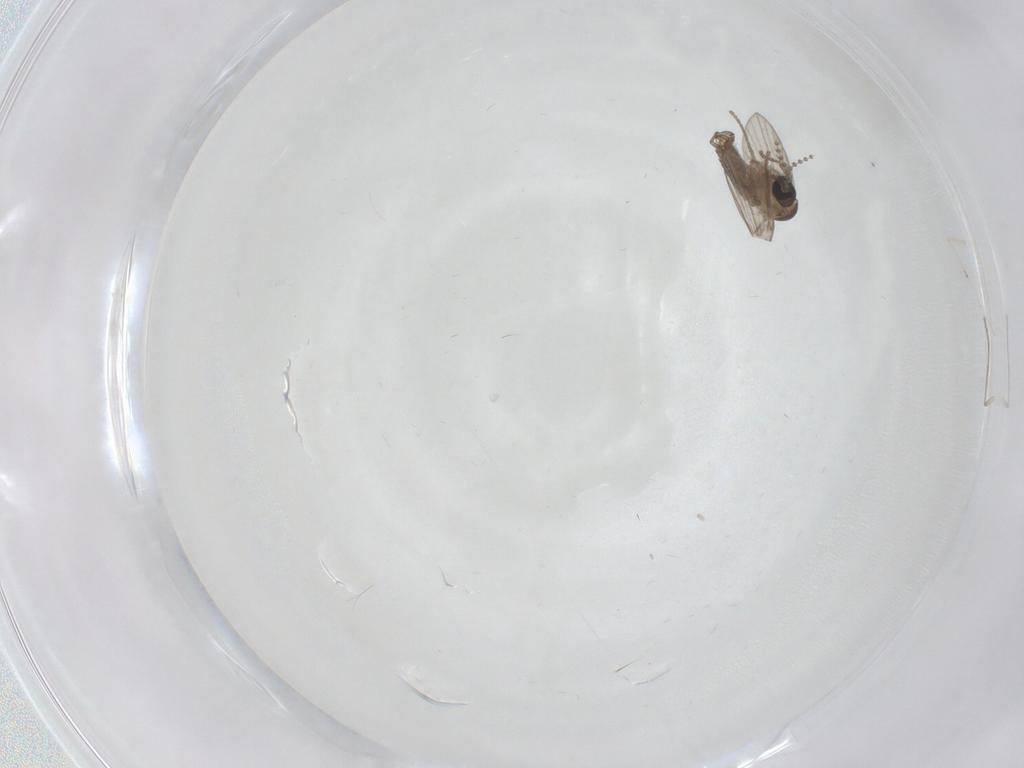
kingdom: Animalia
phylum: Arthropoda
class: Insecta
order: Diptera
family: Psychodidae
